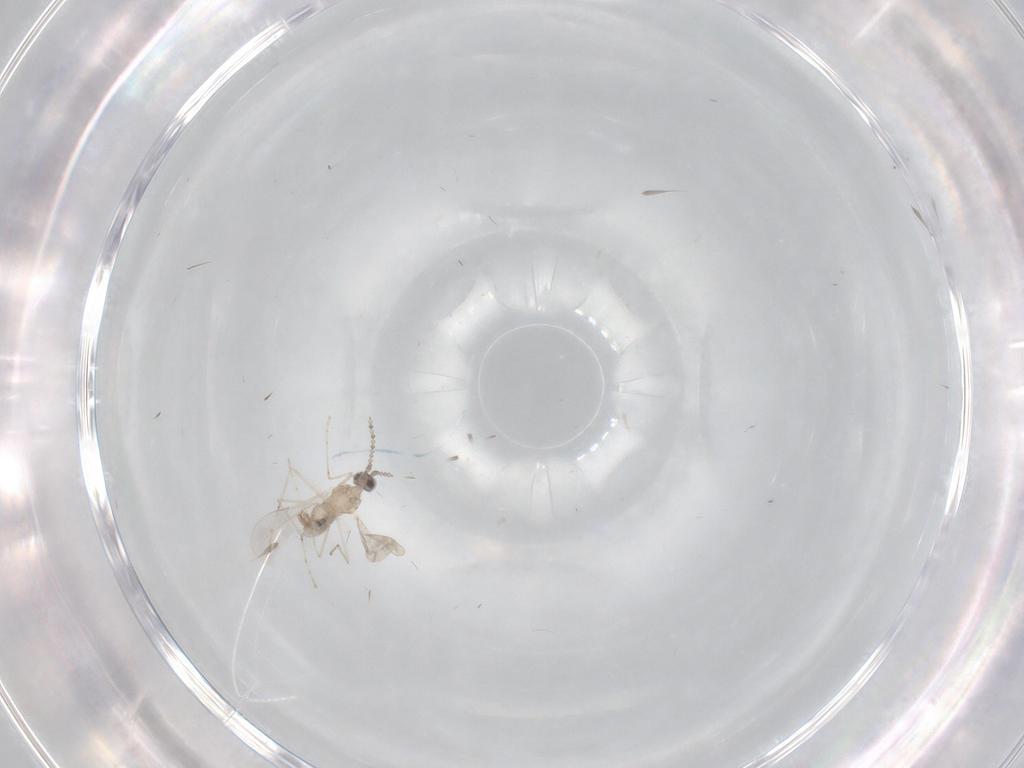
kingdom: Animalia
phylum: Arthropoda
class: Insecta
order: Diptera
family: Cecidomyiidae
